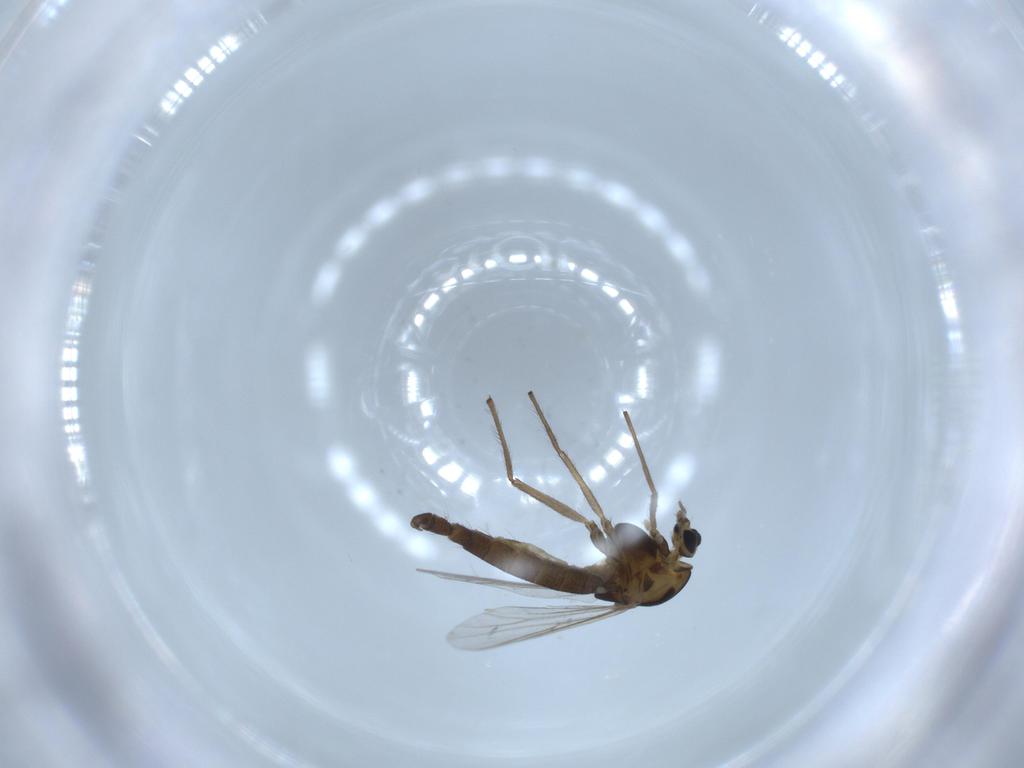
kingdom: Animalia
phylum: Arthropoda
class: Insecta
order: Diptera
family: Chironomidae
